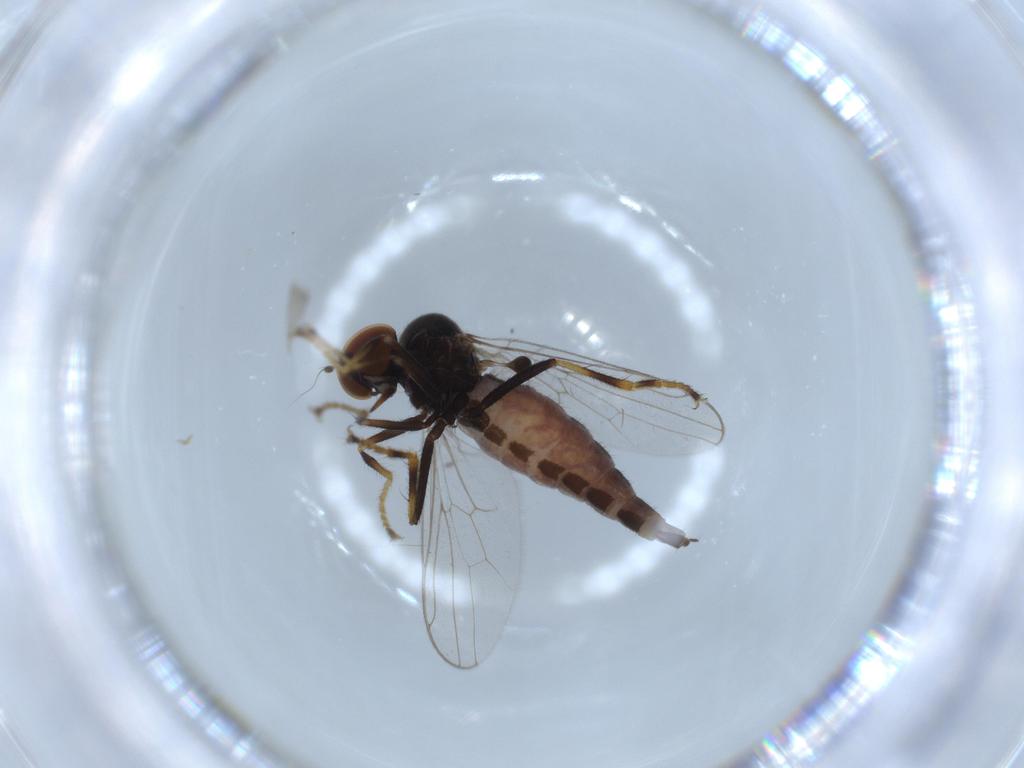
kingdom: Animalia
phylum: Arthropoda
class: Insecta
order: Diptera
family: Hybotidae
